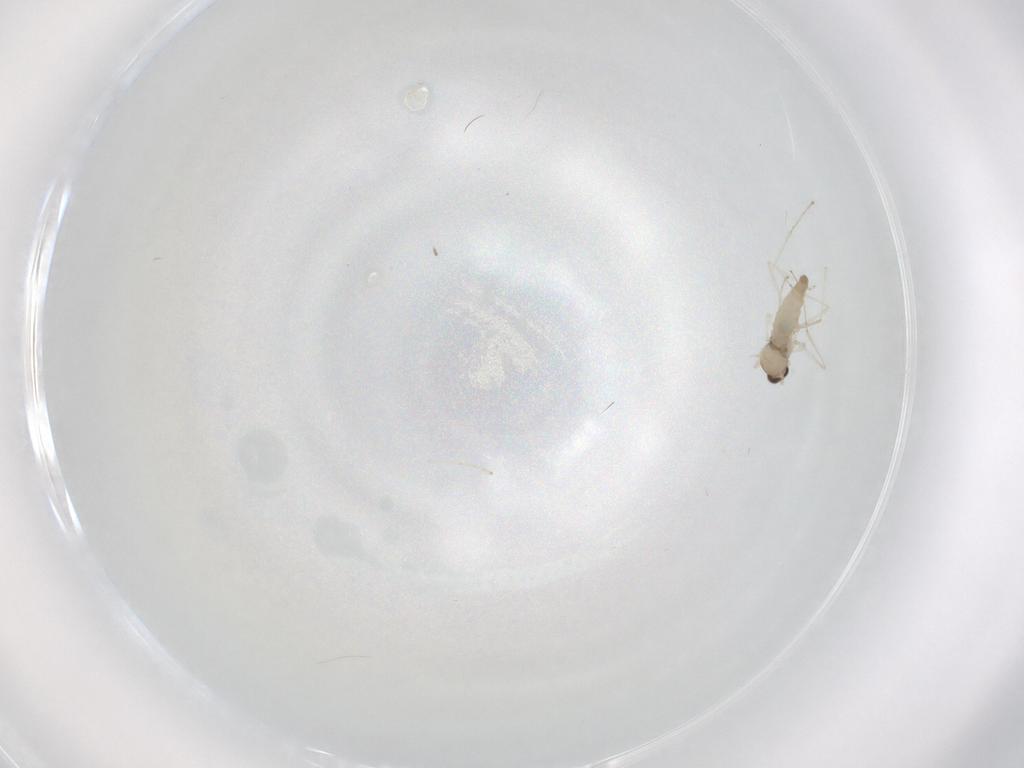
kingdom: Animalia
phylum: Arthropoda
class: Insecta
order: Diptera
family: Cecidomyiidae
